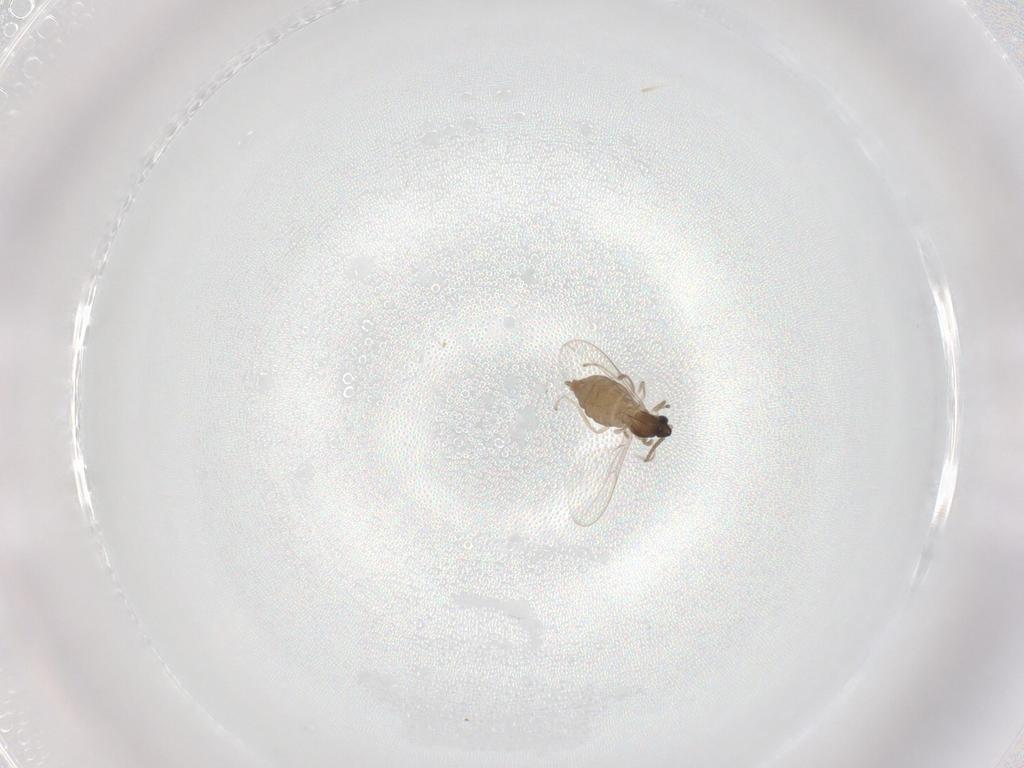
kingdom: Animalia
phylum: Arthropoda
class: Insecta
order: Diptera
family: Cecidomyiidae
